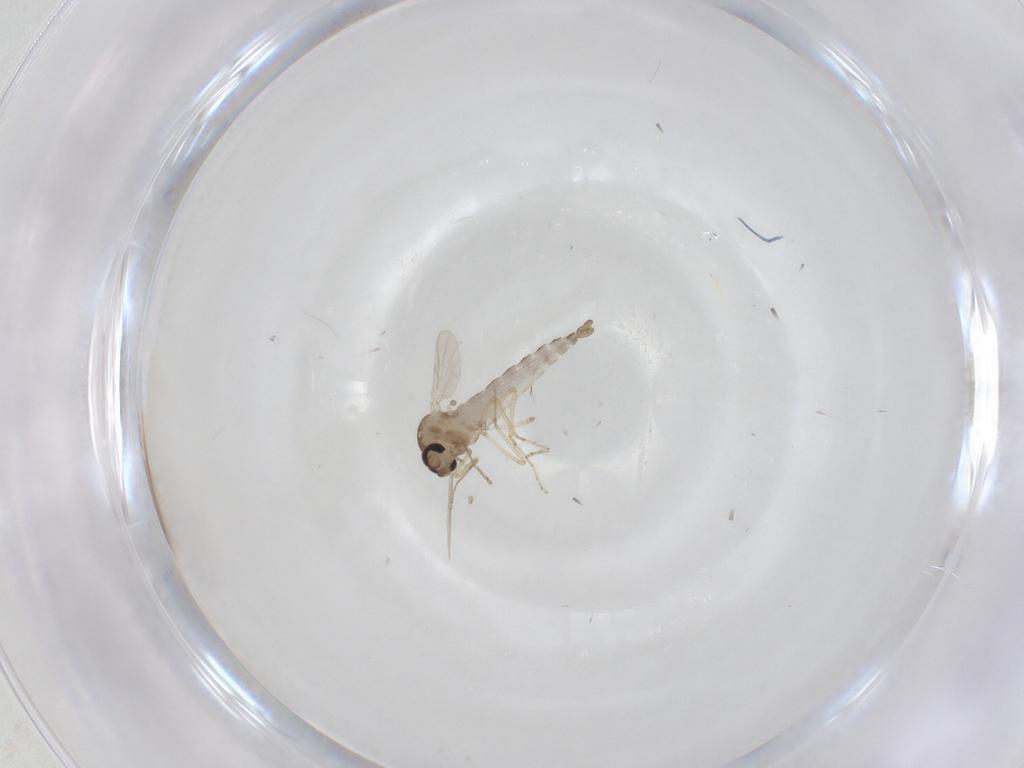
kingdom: Animalia
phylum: Arthropoda
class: Insecta
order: Diptera
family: Ceratopogonidae
